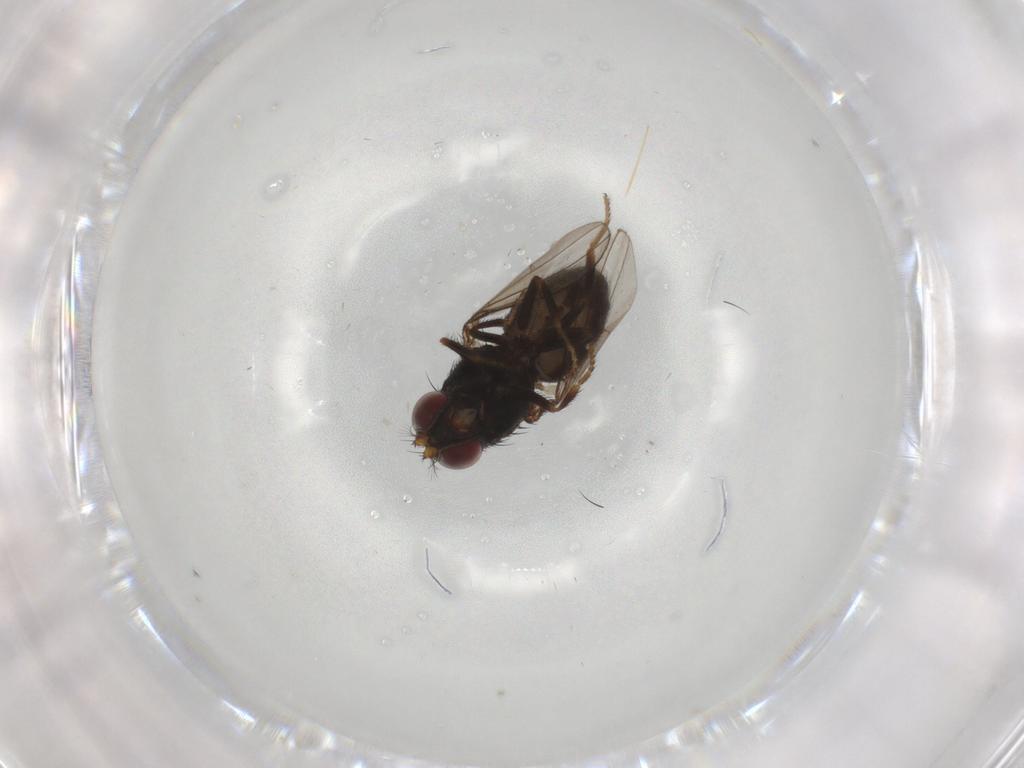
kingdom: Animalia
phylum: Arthropoda
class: Insecta
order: Diptera
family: Ephydridae
